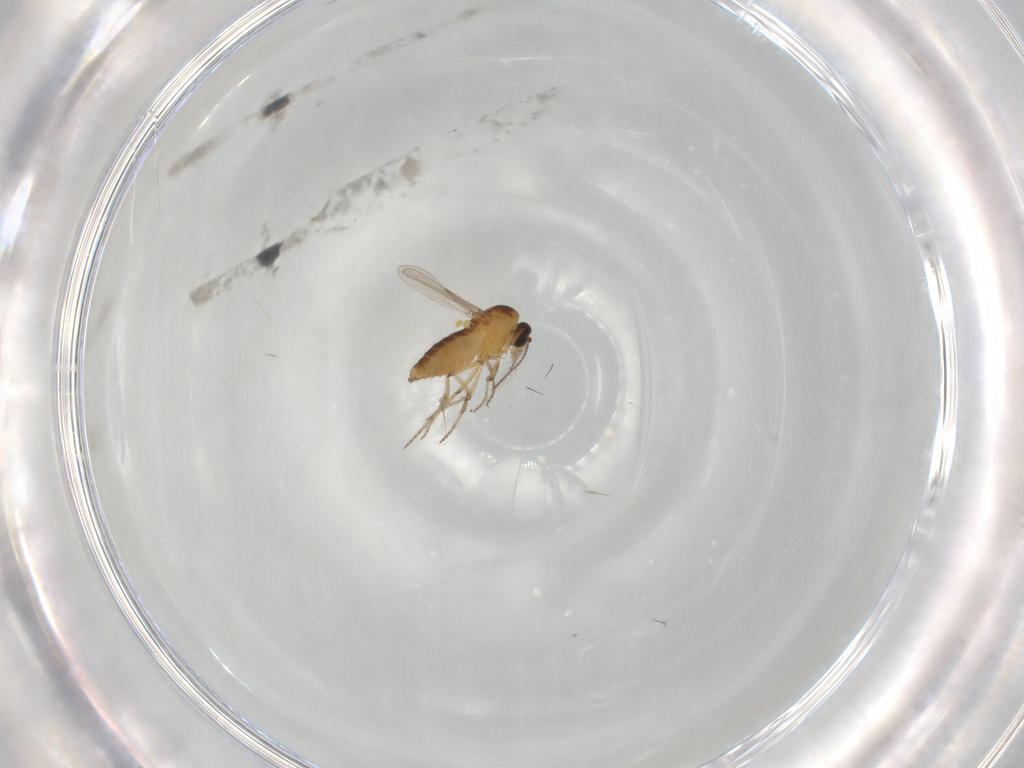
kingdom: Animalia
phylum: Arthropoda
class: Insecta
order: Diptera
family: Ceratopogonidae
